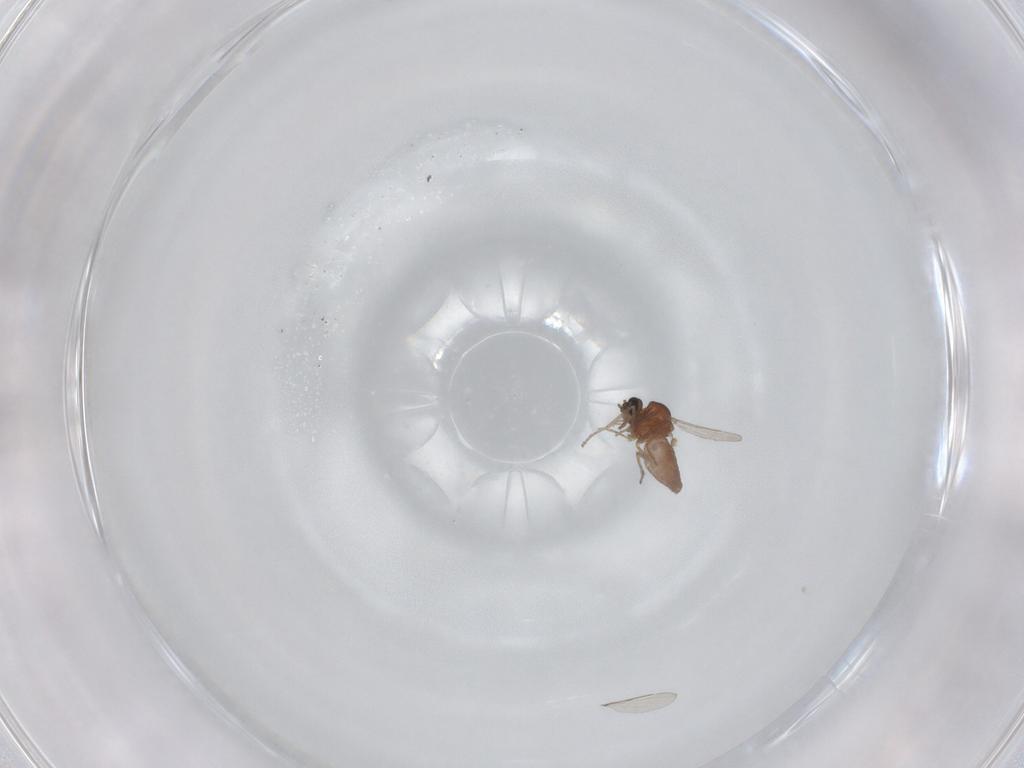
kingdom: Animalia
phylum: Arthropoda
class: Insecta
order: Diptera
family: Ceratopogonidae
